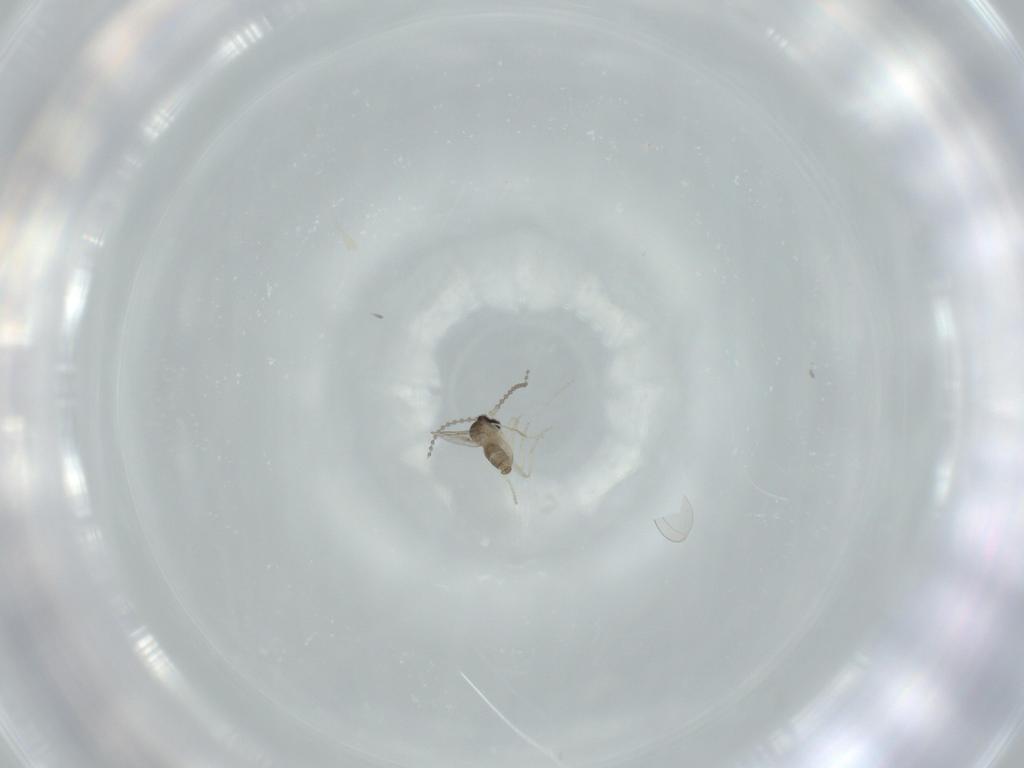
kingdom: Animalia
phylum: Arthropoda
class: Insecta
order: Diptera
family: Cecidomyiidae
